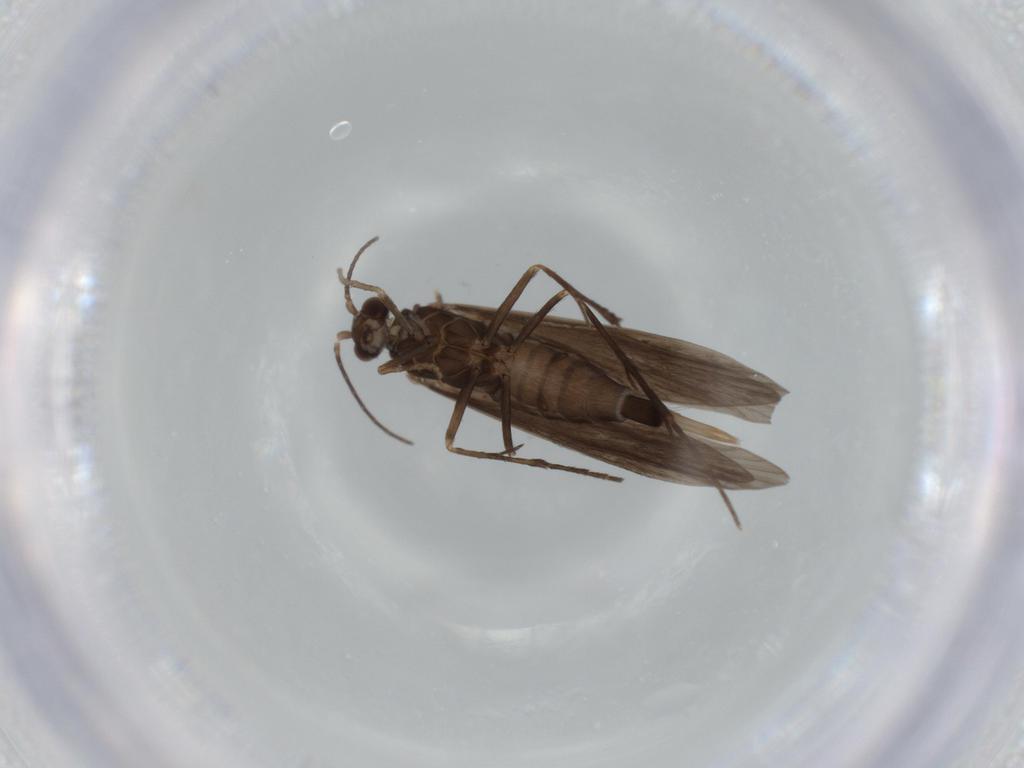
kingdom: Animalia
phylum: Arthropoda
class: Insecta
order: Trichoptera
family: Xiphocentronidae
